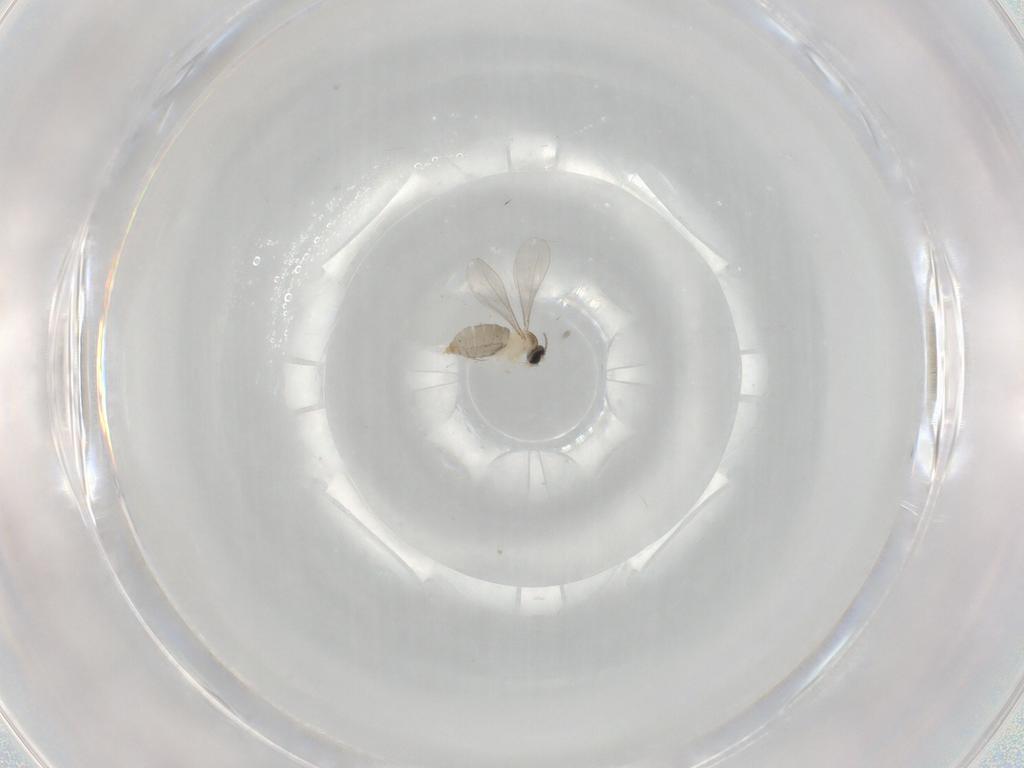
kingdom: Animalia
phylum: Arthropoda
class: Insecta
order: Diptera
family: Cecidomyiidae
